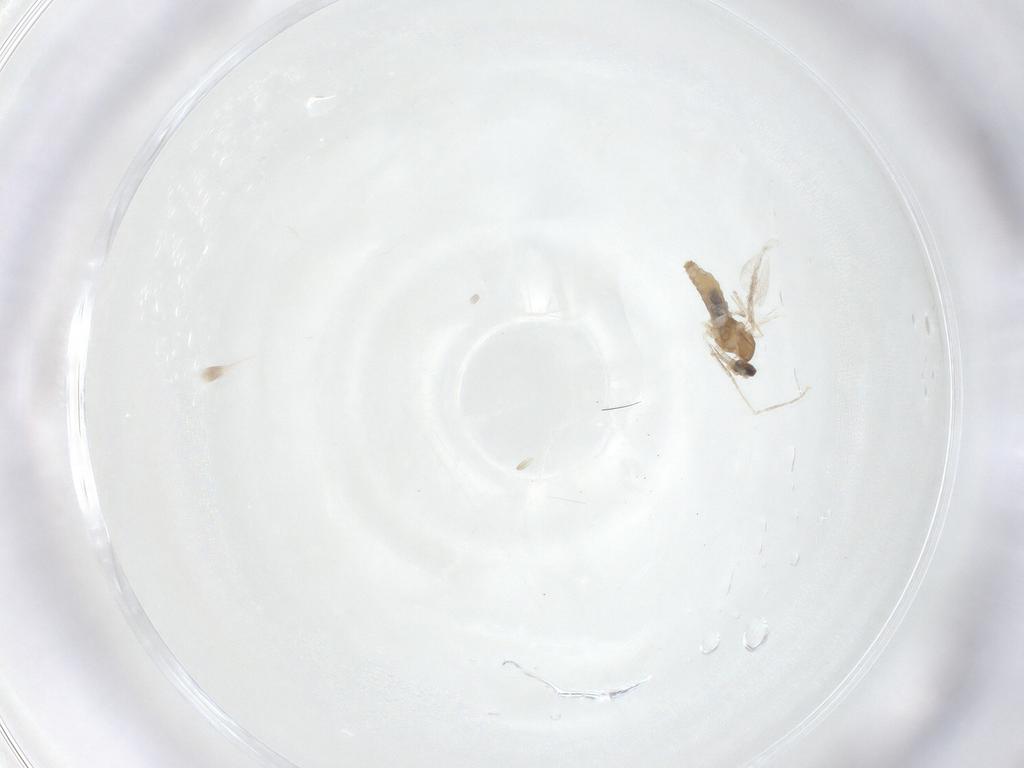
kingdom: Animalia
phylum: Arthropoda
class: Insecta
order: Diptera
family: Cecidomyiidae
